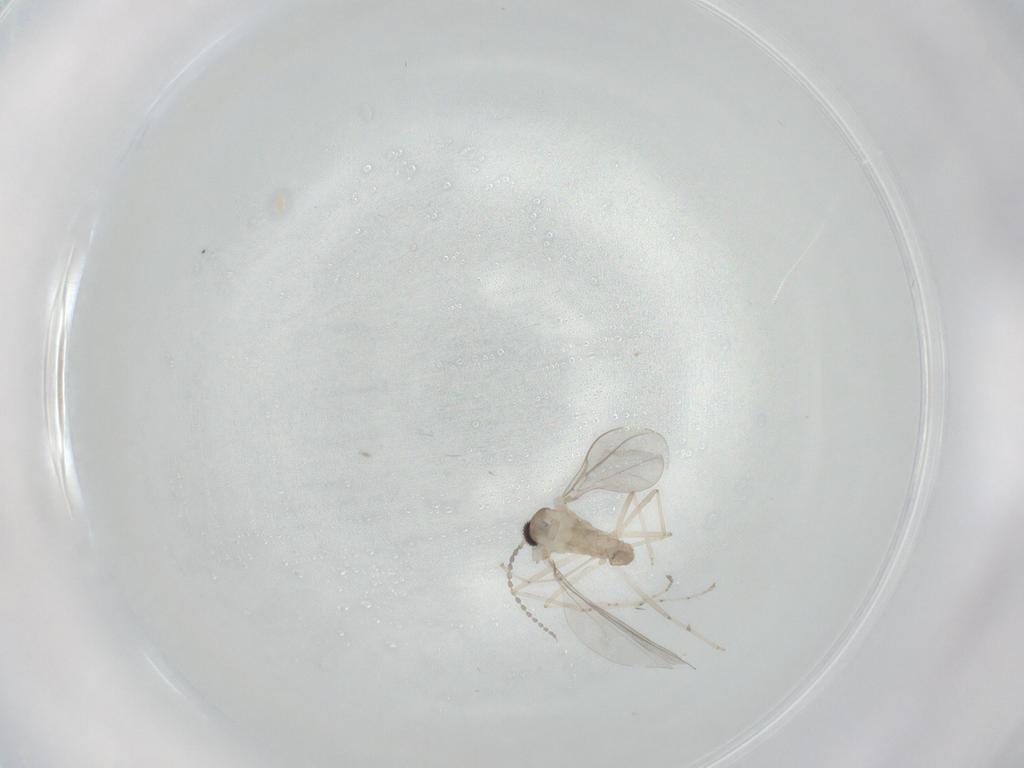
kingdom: Animalia
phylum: Arthropoda
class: Insecta
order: Diptera
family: Cecidomyiidae
